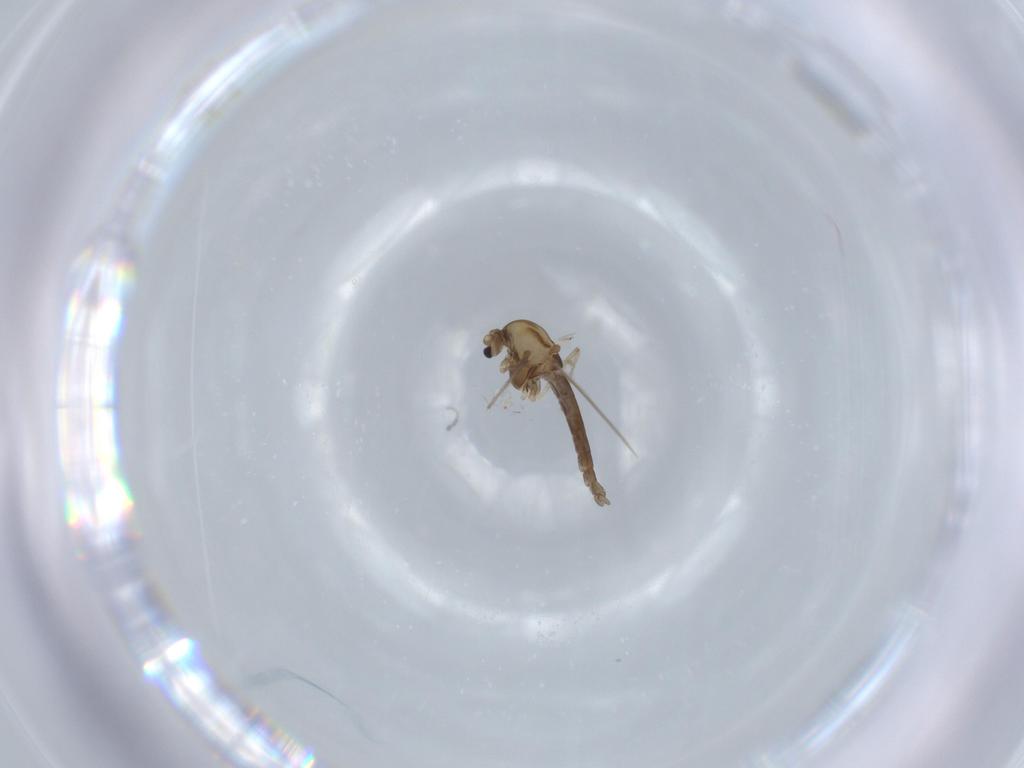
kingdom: Animalia
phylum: Arthropoda
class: Insecta
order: Diptera
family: Chironomidae
